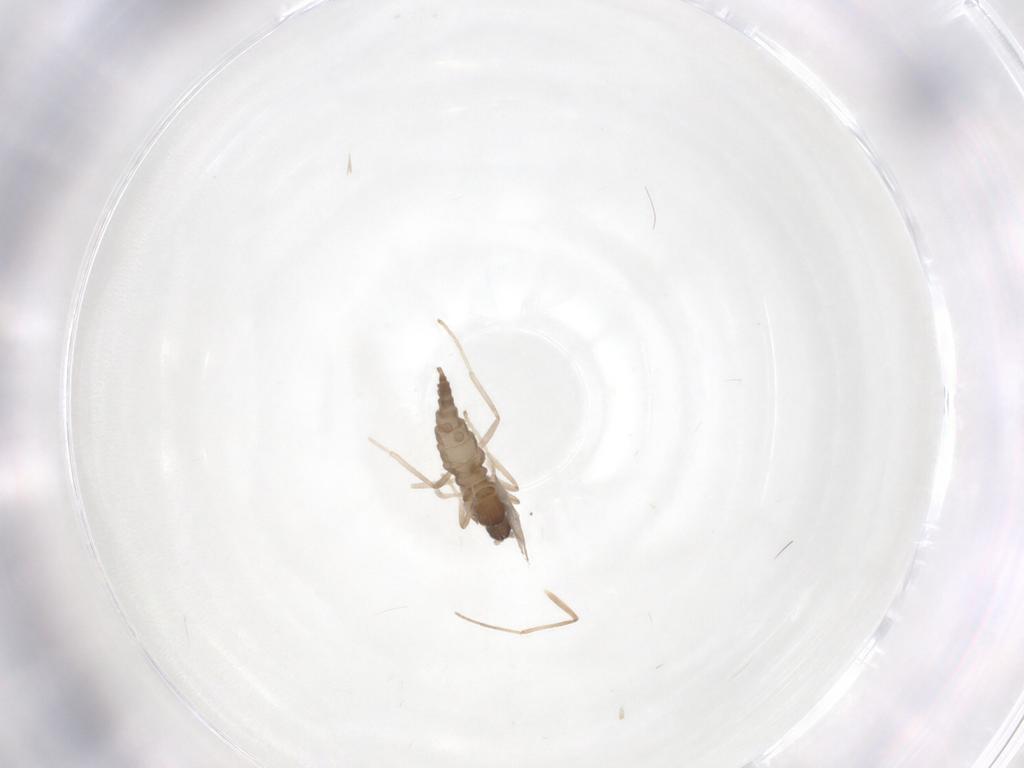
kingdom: Animalia
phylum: Arthropoda
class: Insecta
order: Diptera
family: Cecidomyiidae
